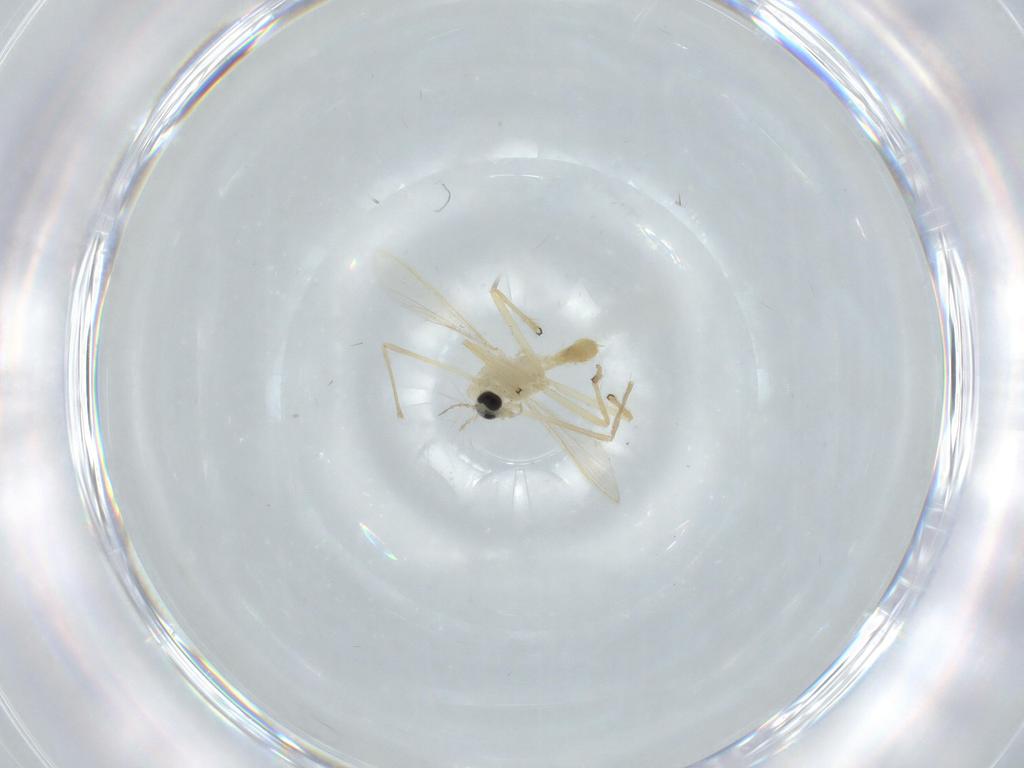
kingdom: Animalia
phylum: Arthropoda
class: Insecta
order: Diptera
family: Chironomidae
